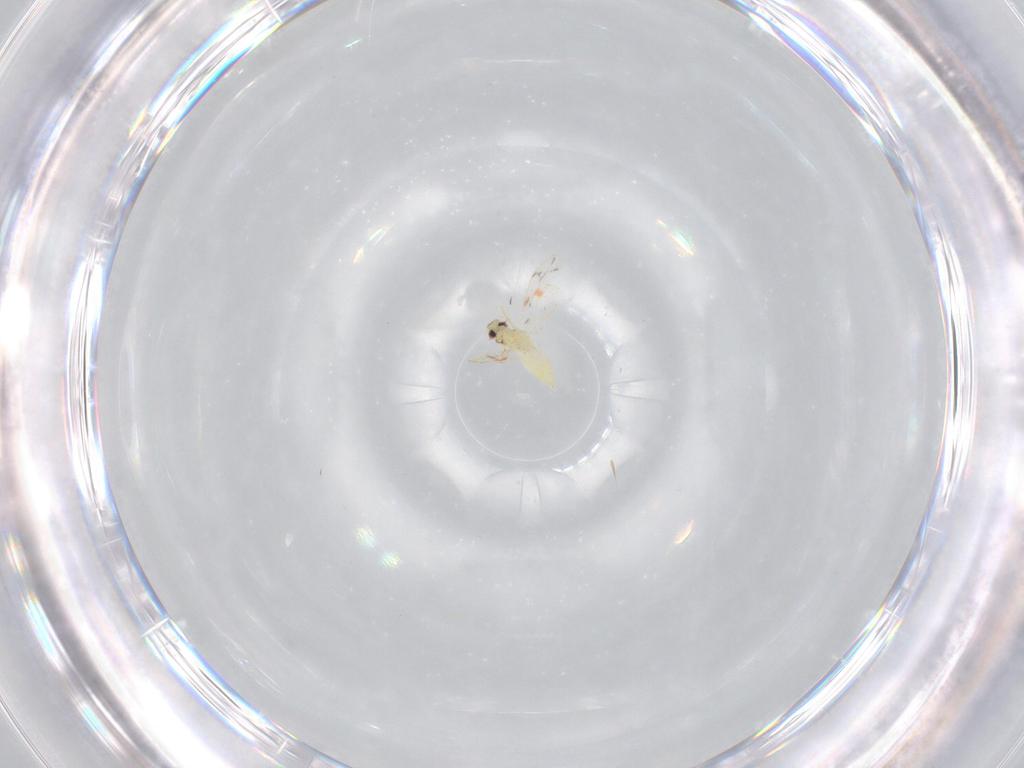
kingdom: Animalia
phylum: Arthropoda
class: Insecta
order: Hemiptera
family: Aleyrodidae
